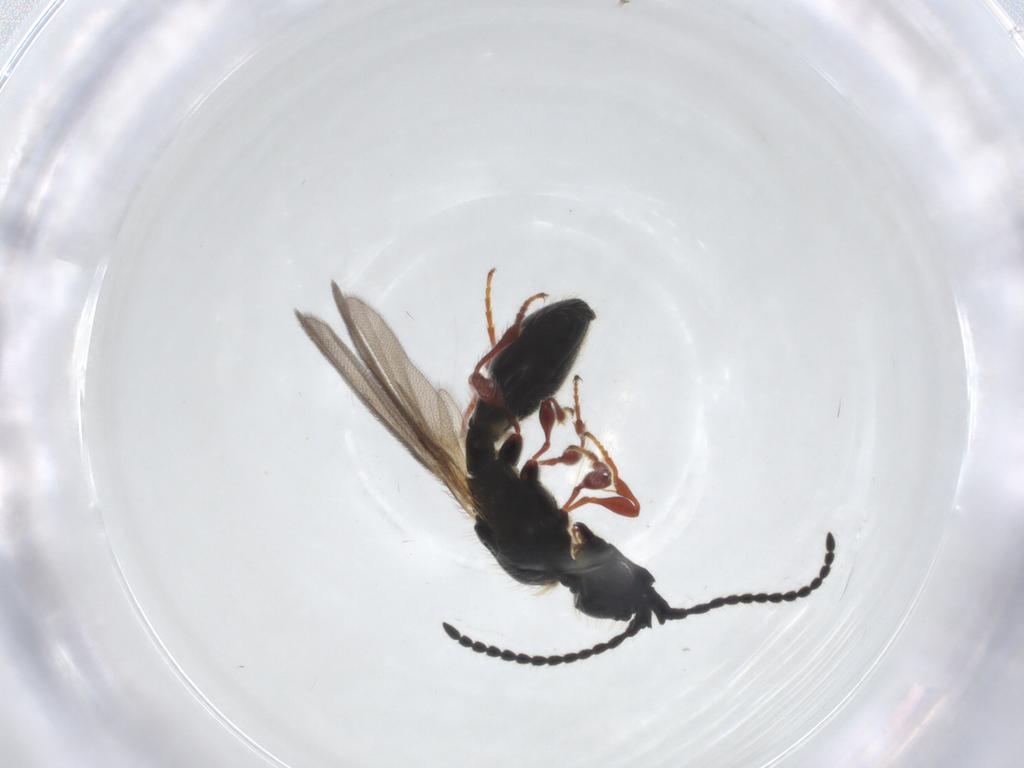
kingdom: Animalia
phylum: Arthropoda
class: Insecta
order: Hymenoptera
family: Diapriidae
